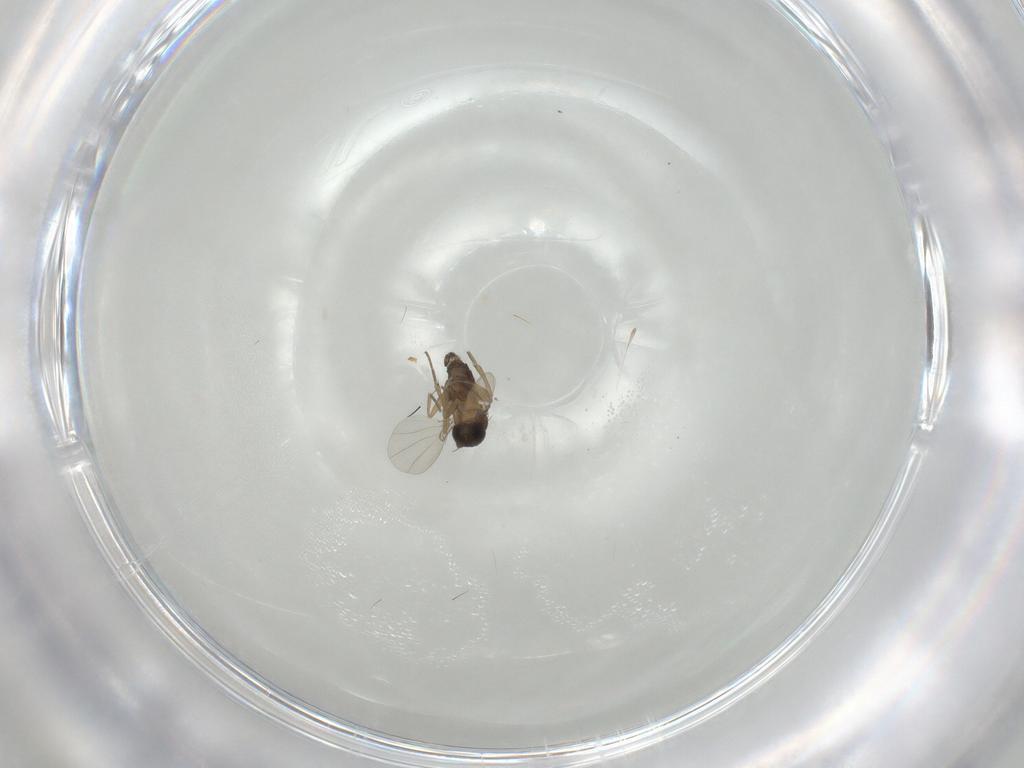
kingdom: Animalia
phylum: Arthropoda
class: Insecta
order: Diptera
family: Phoridae
